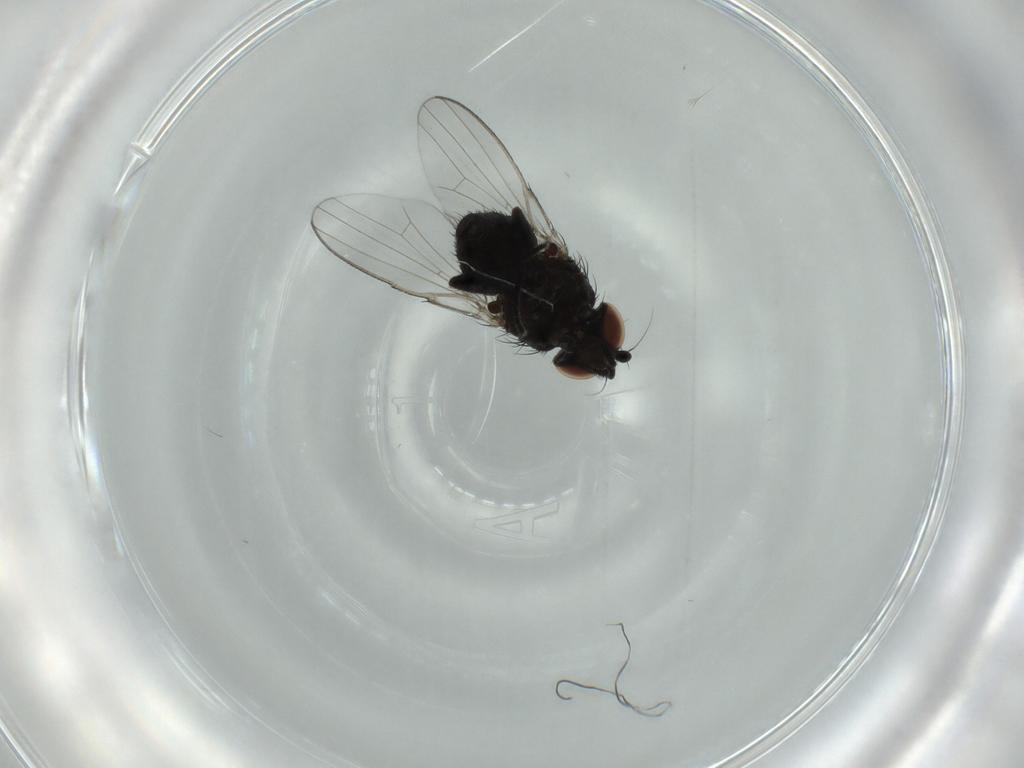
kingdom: Animalia
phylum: Arthropoda
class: Insecta
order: Diptera
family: Milichiidae
